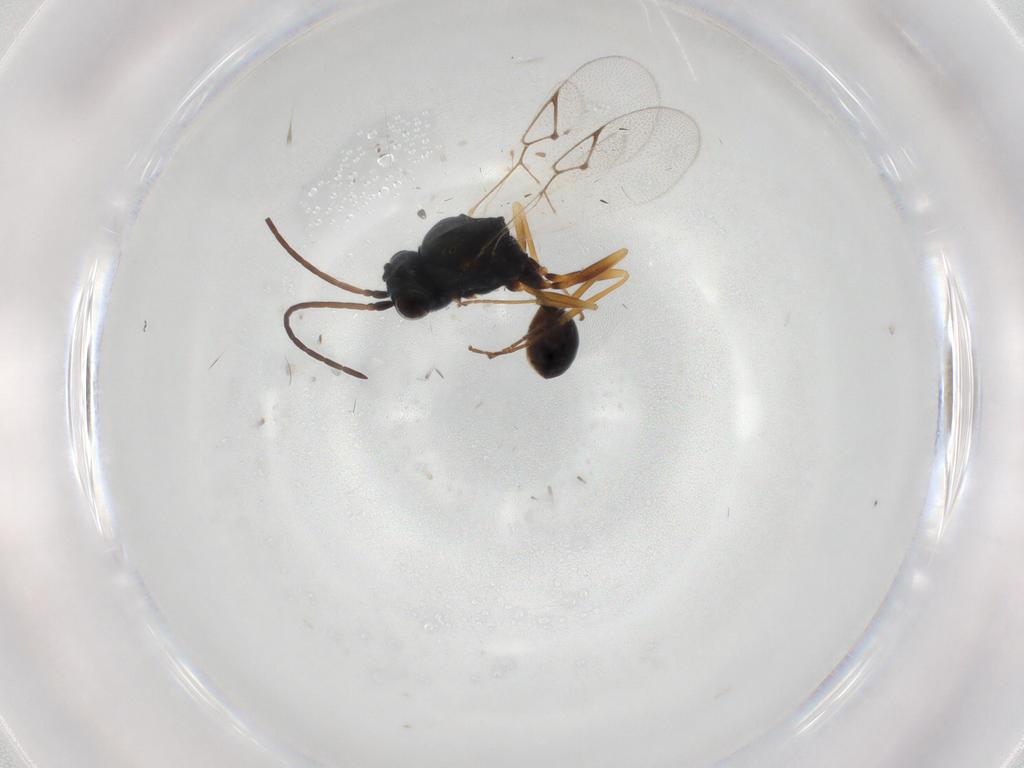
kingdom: Animalia
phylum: Arthropoda
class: Insecta
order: Hymenoptera
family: Figitidae
